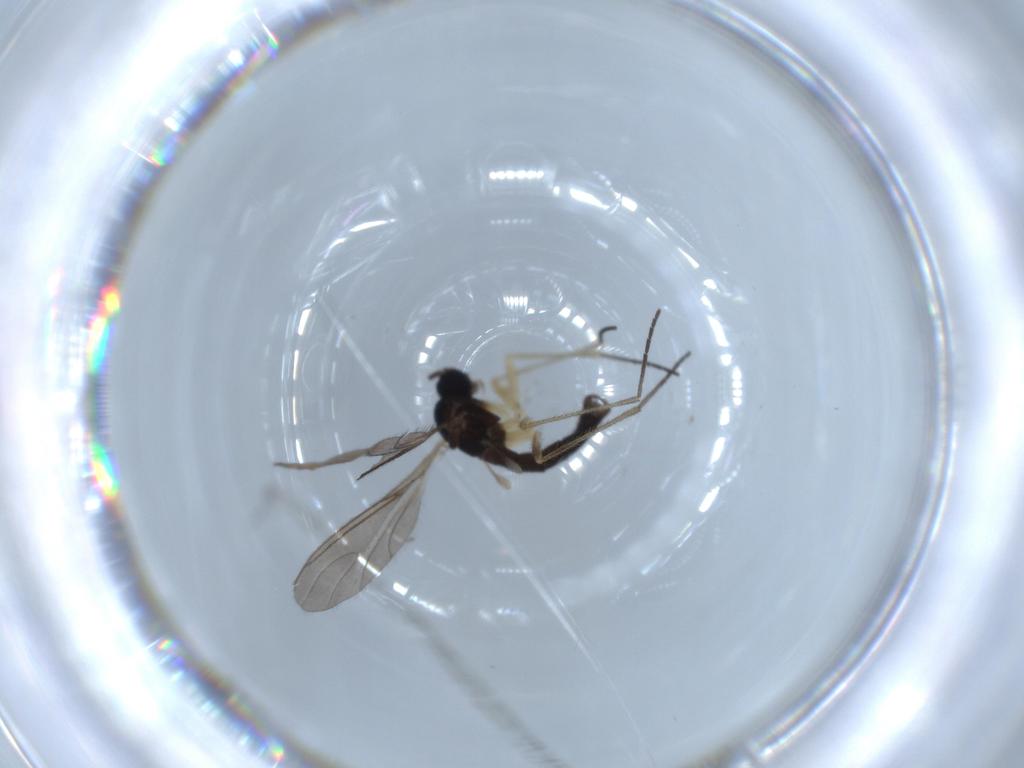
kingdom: Animalia
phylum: Arthropoda
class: Insecta
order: Diptera
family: Sciaridae
